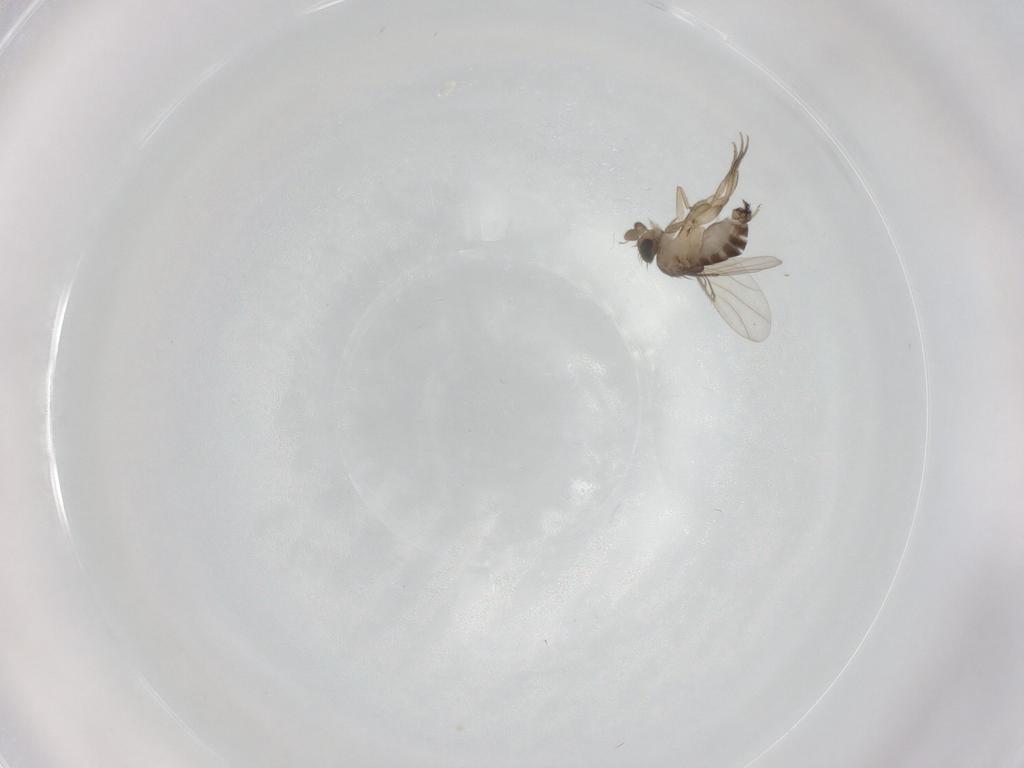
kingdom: Animalia
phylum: Arthropoda
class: Insecta
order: Diptera
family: Phoridae
